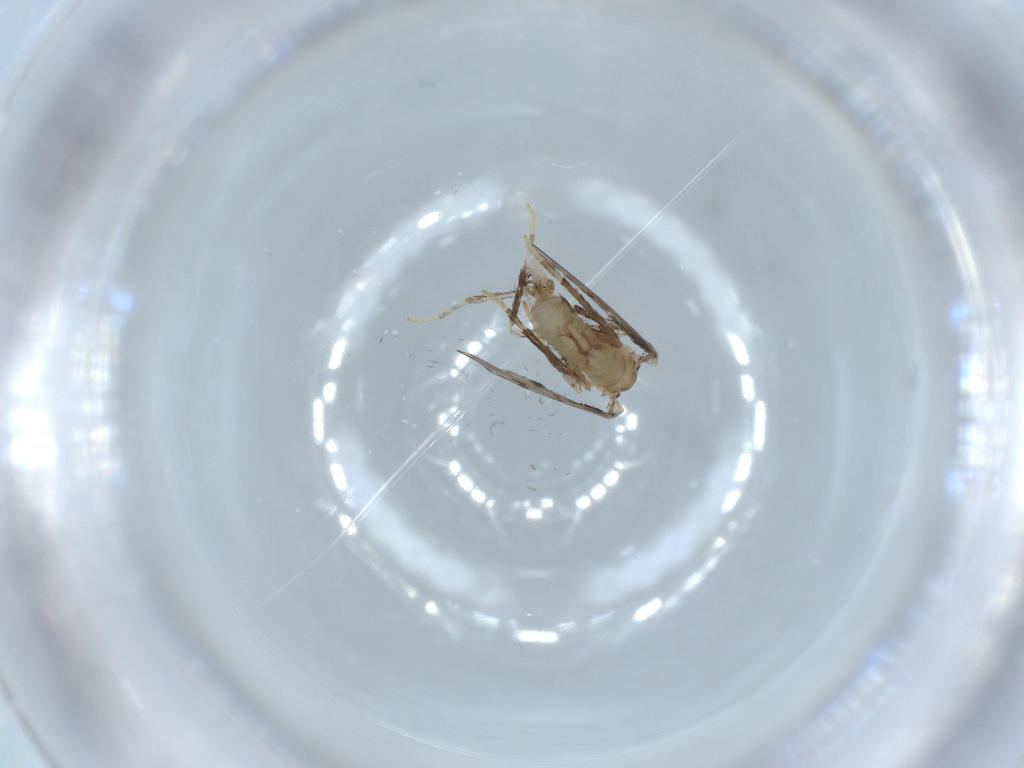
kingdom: Animalia
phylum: Arthropoda
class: Insecta
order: Diptera
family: Psychodidae
